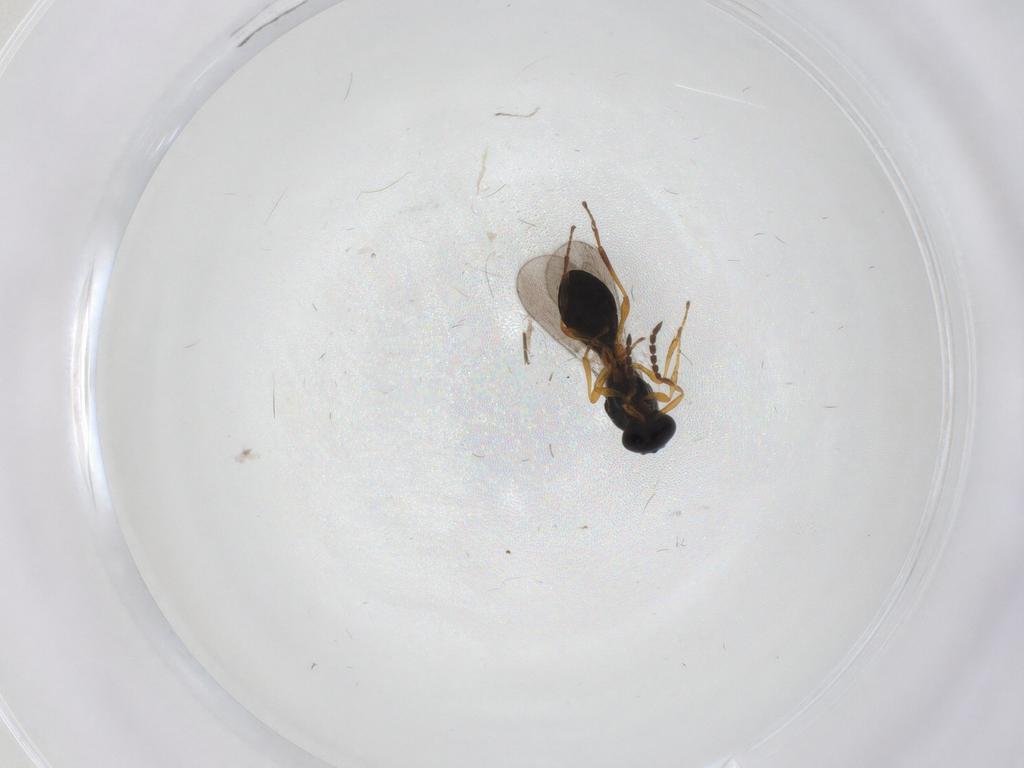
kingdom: Animalia
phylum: Arthropoda
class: Insecta
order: Hymenoptera
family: Platygastridae
